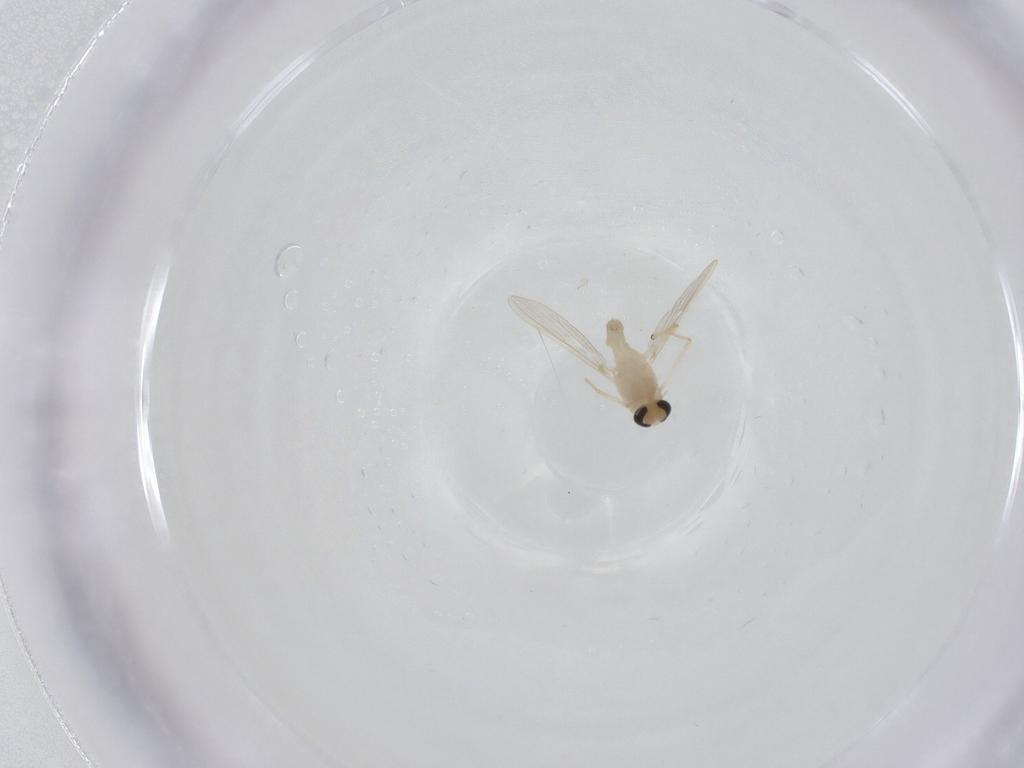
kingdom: Animalia
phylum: Arthropoda
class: Insecta
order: Diptera
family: Chironomidae
